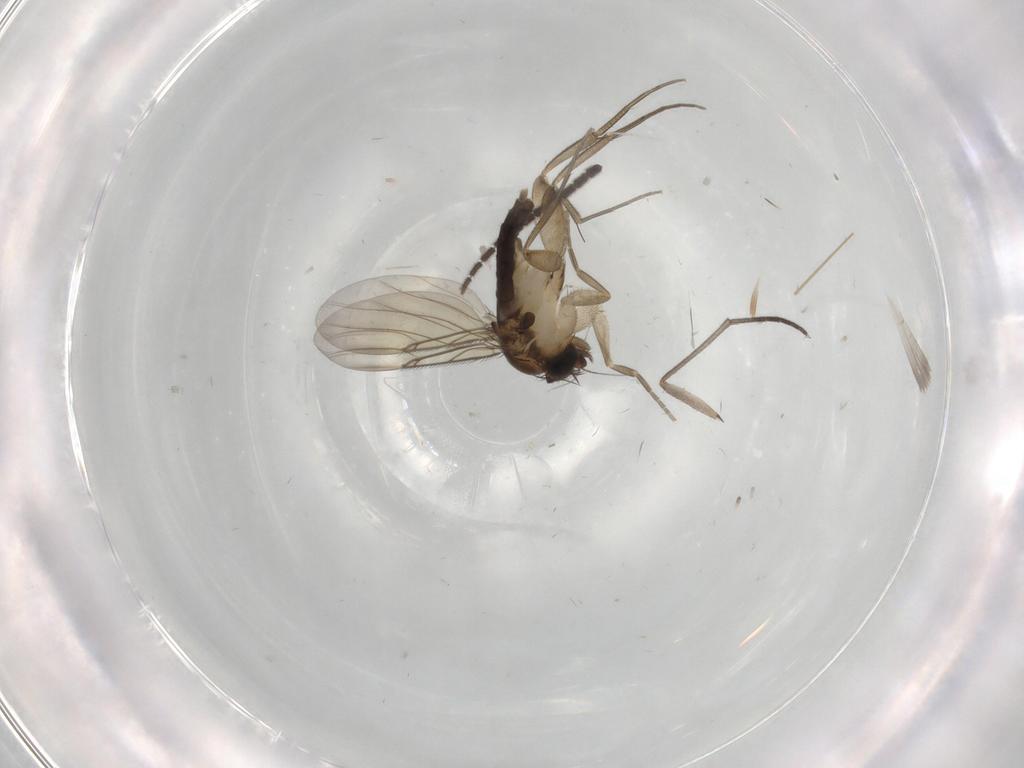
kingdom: Animalia
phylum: Arthropoda
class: Insecta
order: Diptera
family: Phoridae
